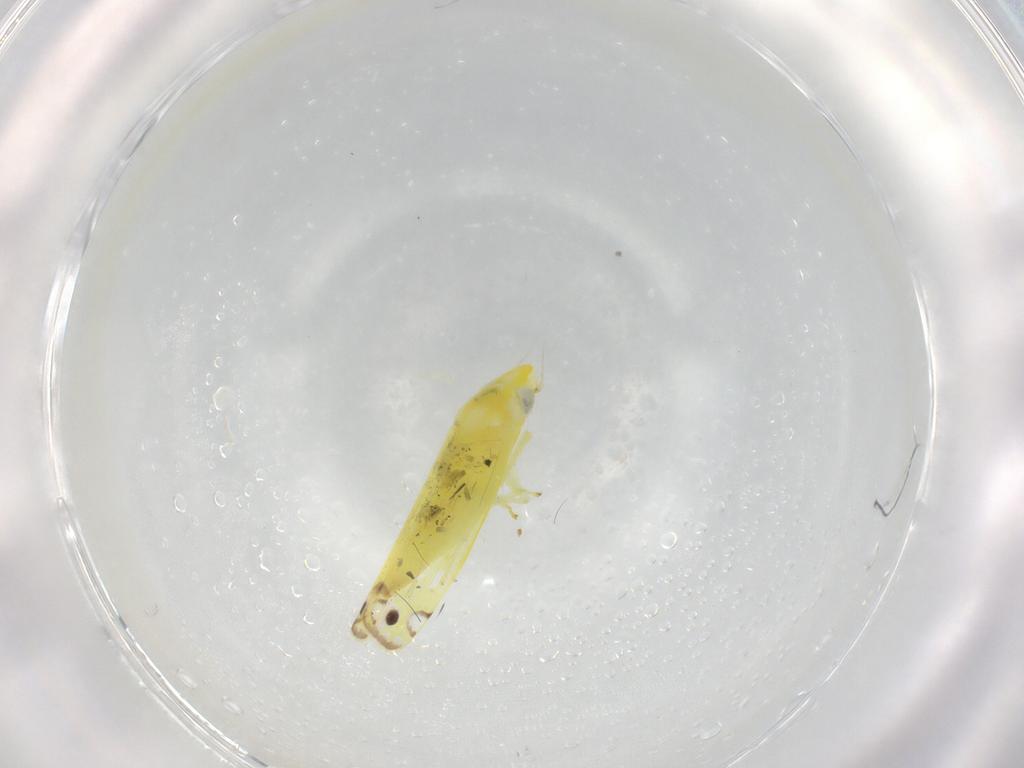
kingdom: Animalia
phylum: Arthropoda
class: Insecta
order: Hemiptera
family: Cicadellidae
